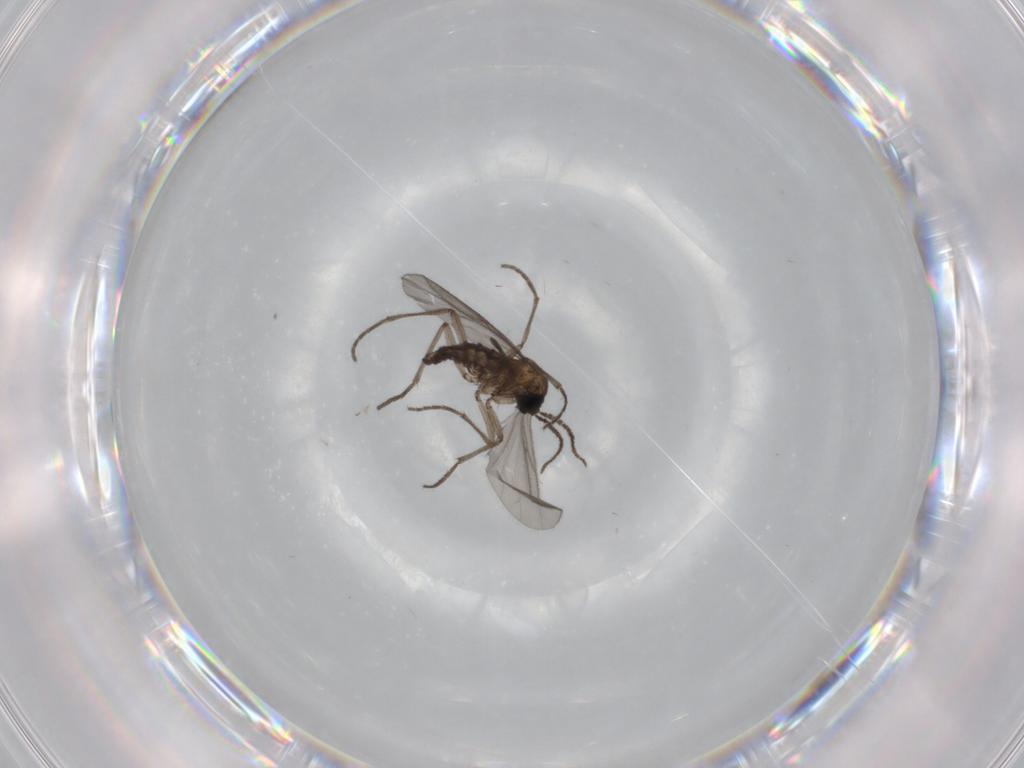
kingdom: Animalia
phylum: Arthropoda
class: Insecta
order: Diptera
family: Sciaridae
